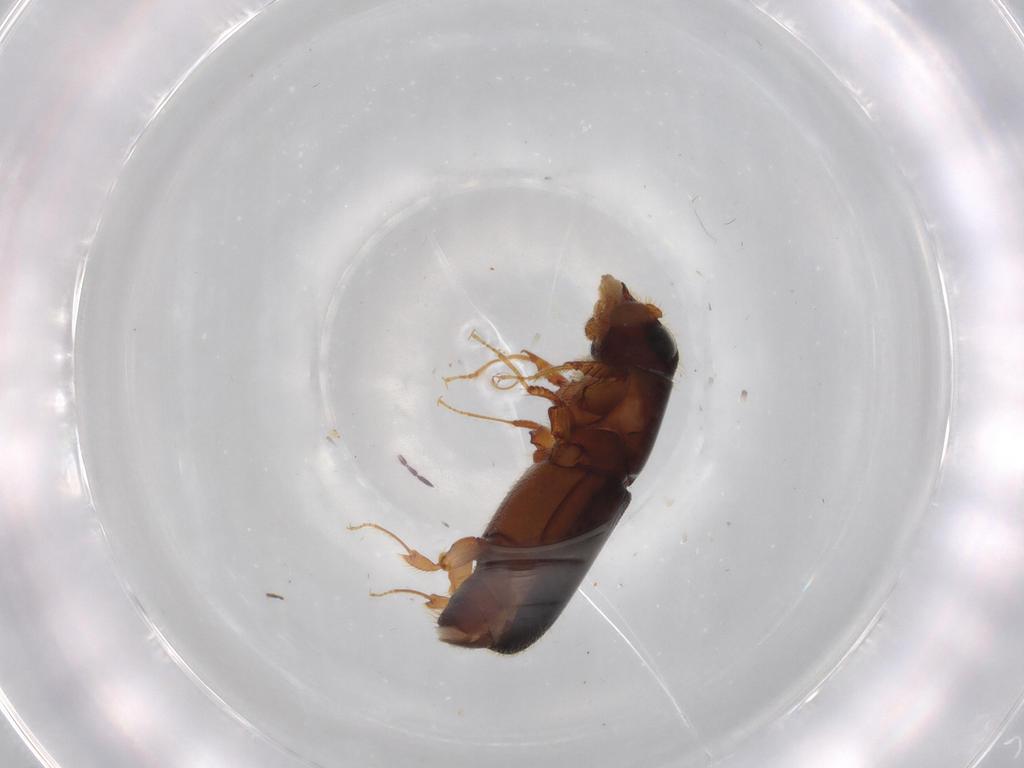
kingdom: Animalia
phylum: Arthropoda
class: Insecta
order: Coleoptera
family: Curculionidae
